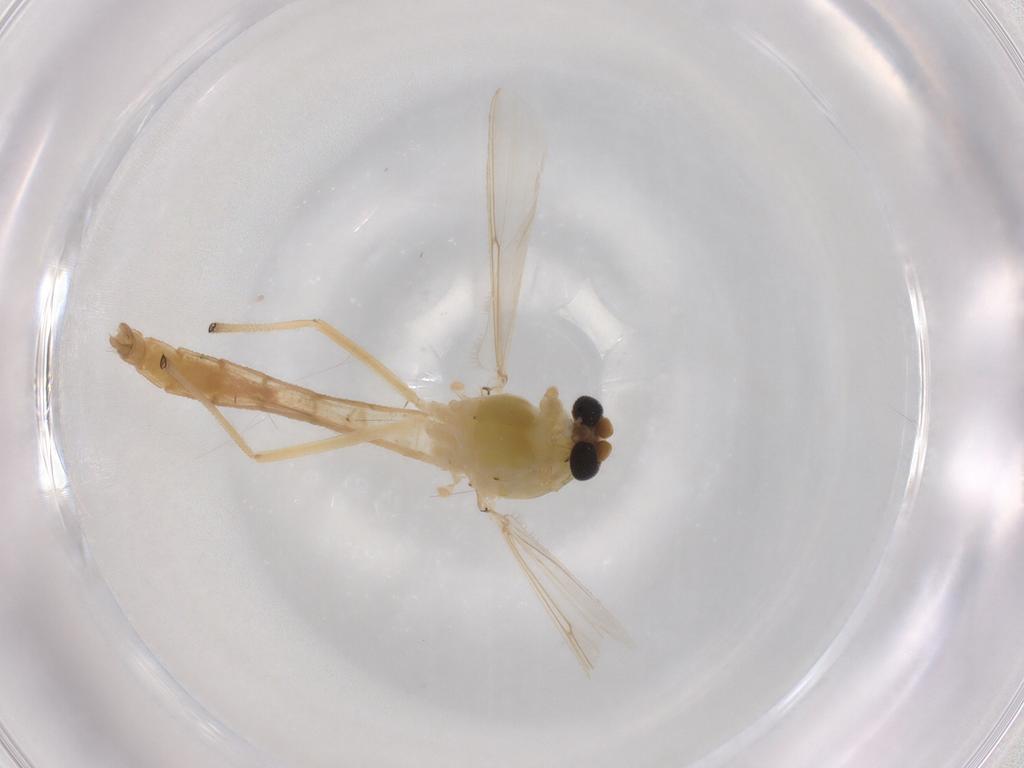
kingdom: Animalia
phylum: Arthropoda
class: Insecta
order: Diptera
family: Chironomidae
